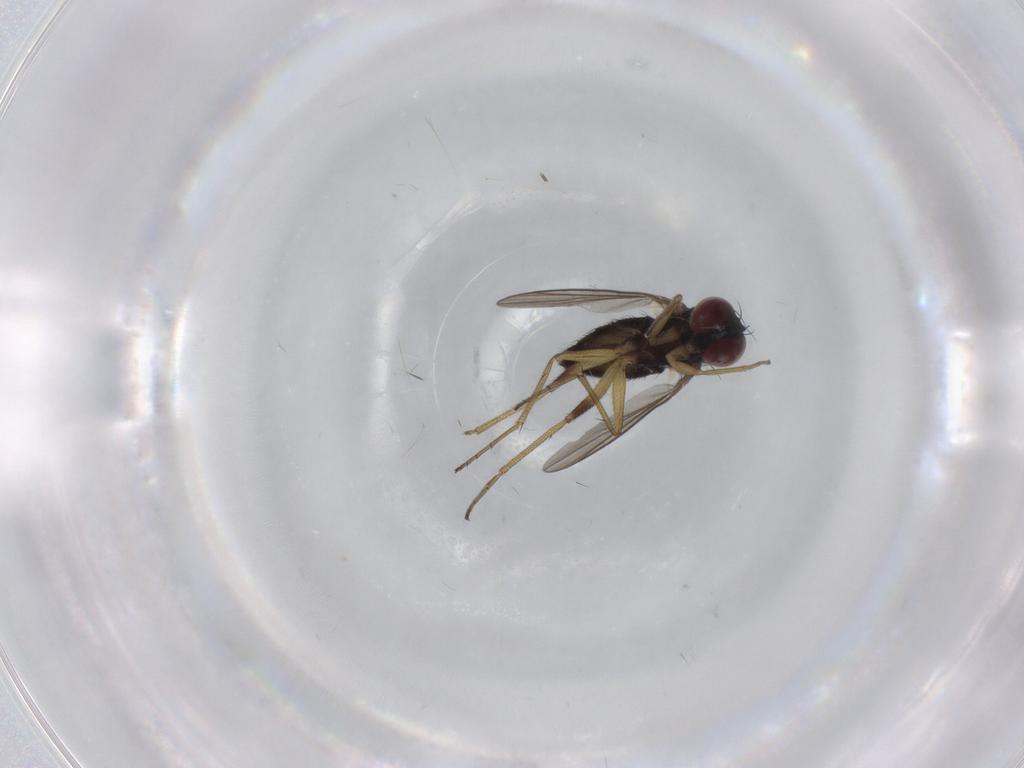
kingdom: Animalia
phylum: Arthropoda
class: Insecta
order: Diptera
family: Dolichopodidae
